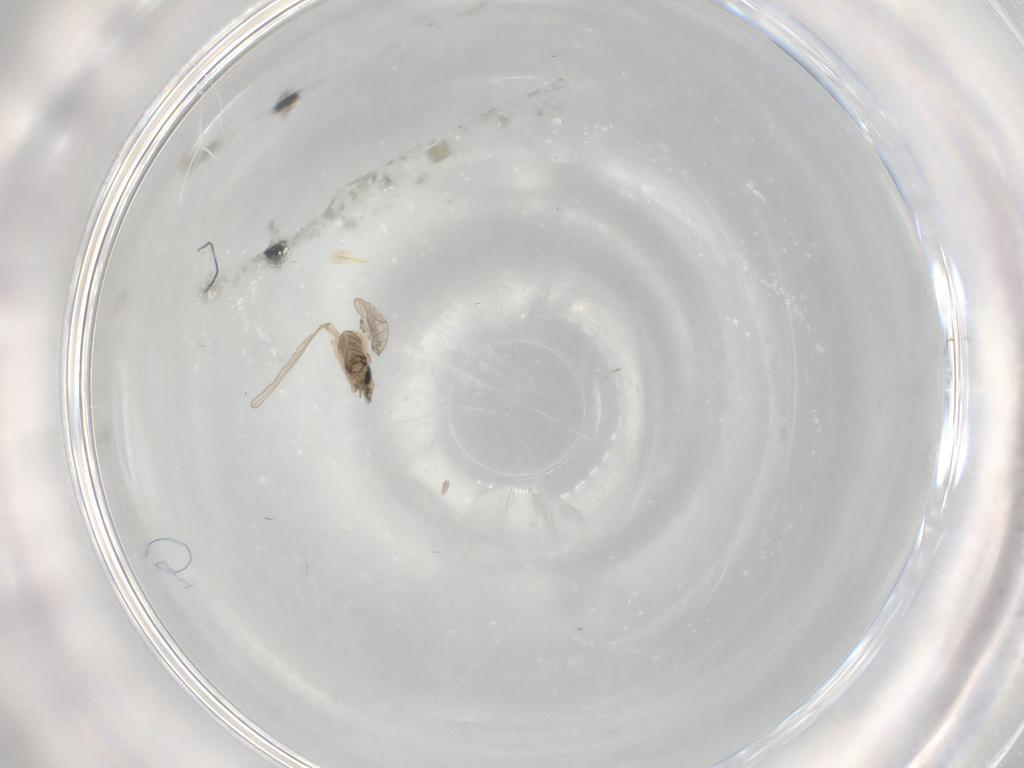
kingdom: Animalia
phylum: Arthropoda
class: Insecta
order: Diptera
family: Psychodidae
